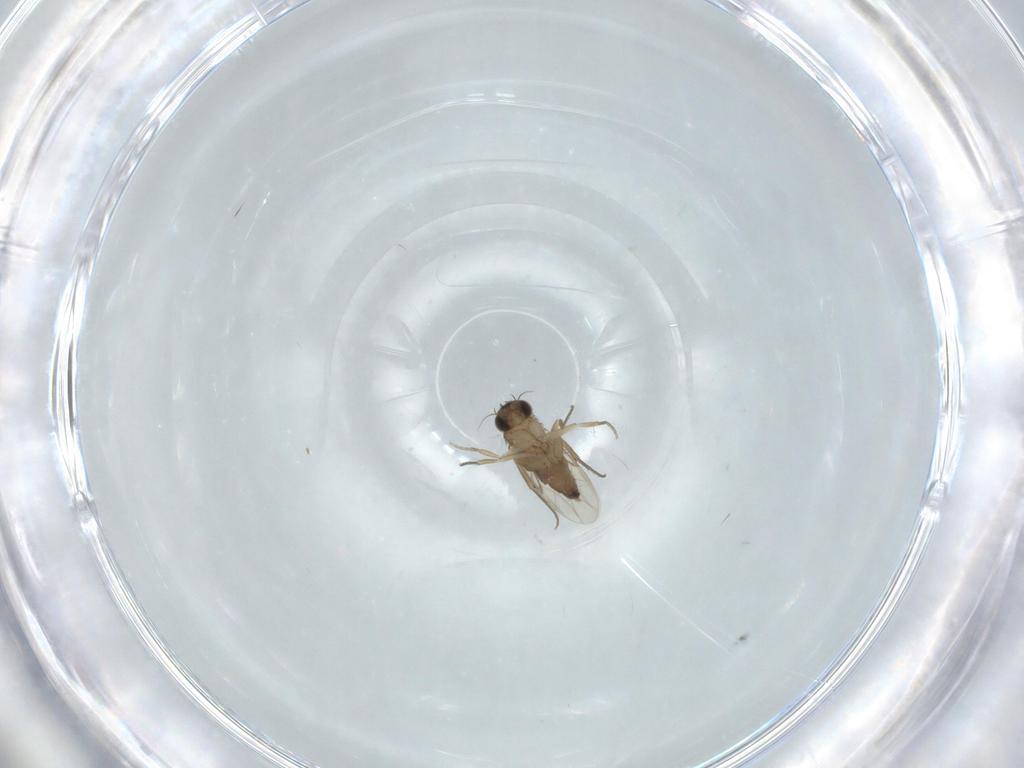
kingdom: Animalia
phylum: Arthropoda
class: Insecta
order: Diptera
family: Phoridae
